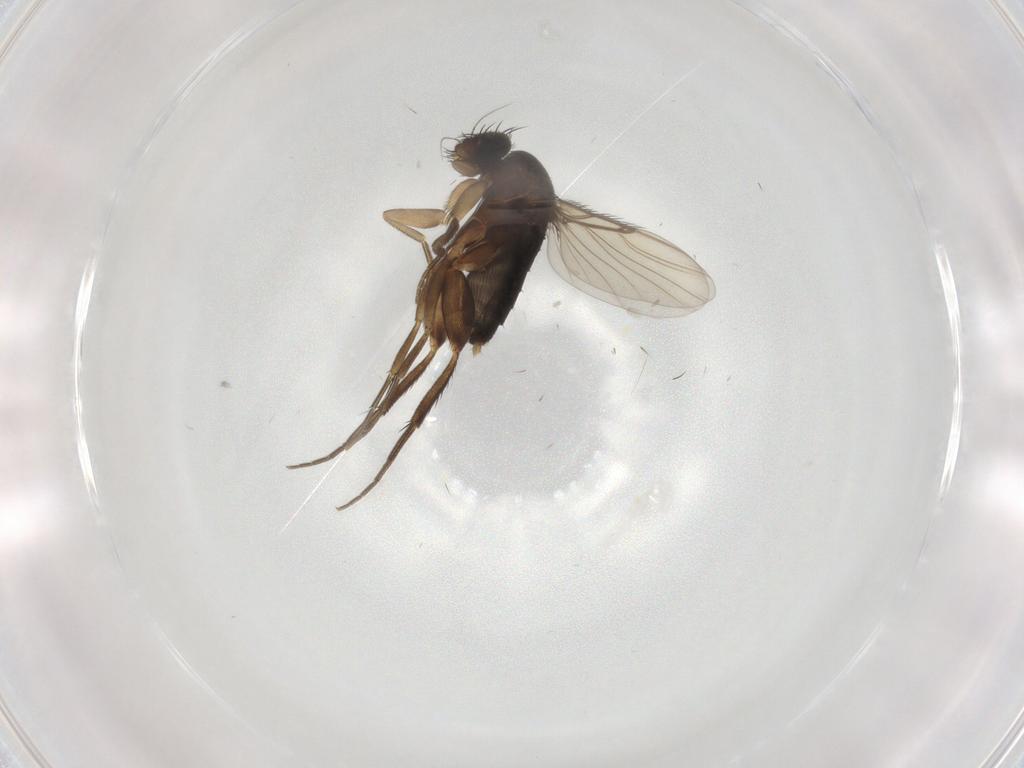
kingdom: Animalia
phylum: Arthropoda
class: Insecta
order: Diptera
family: Phoridae
